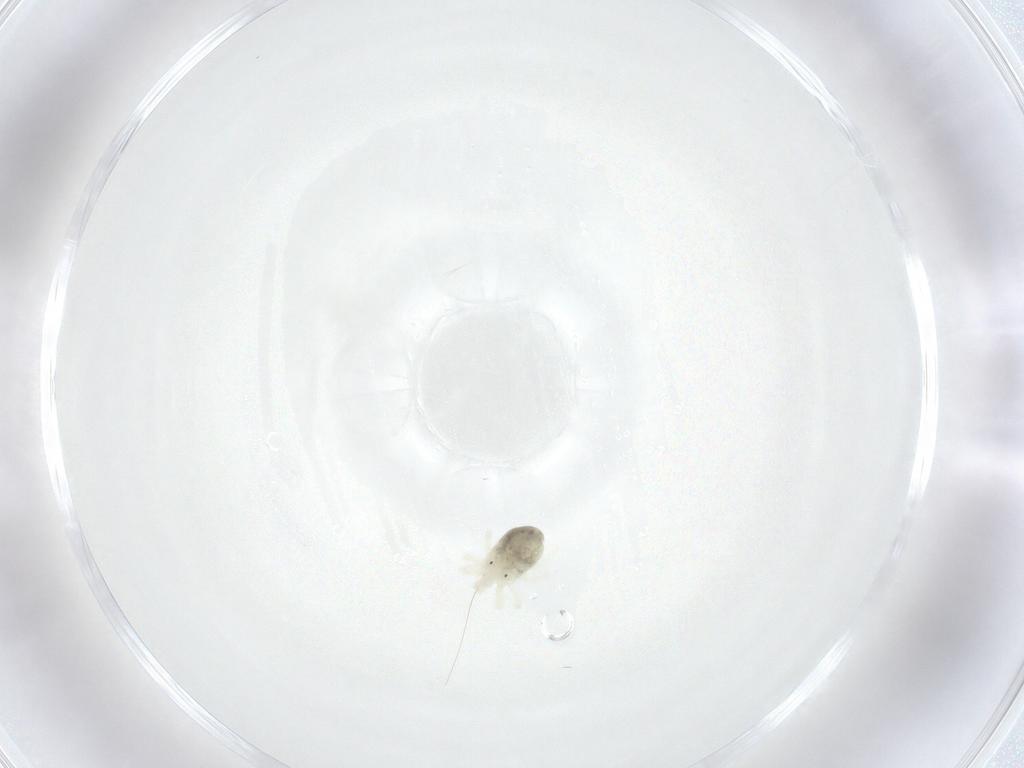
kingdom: Animalia
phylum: Arthropoda
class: Arachnida
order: Trombidiformes
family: Anystidae
